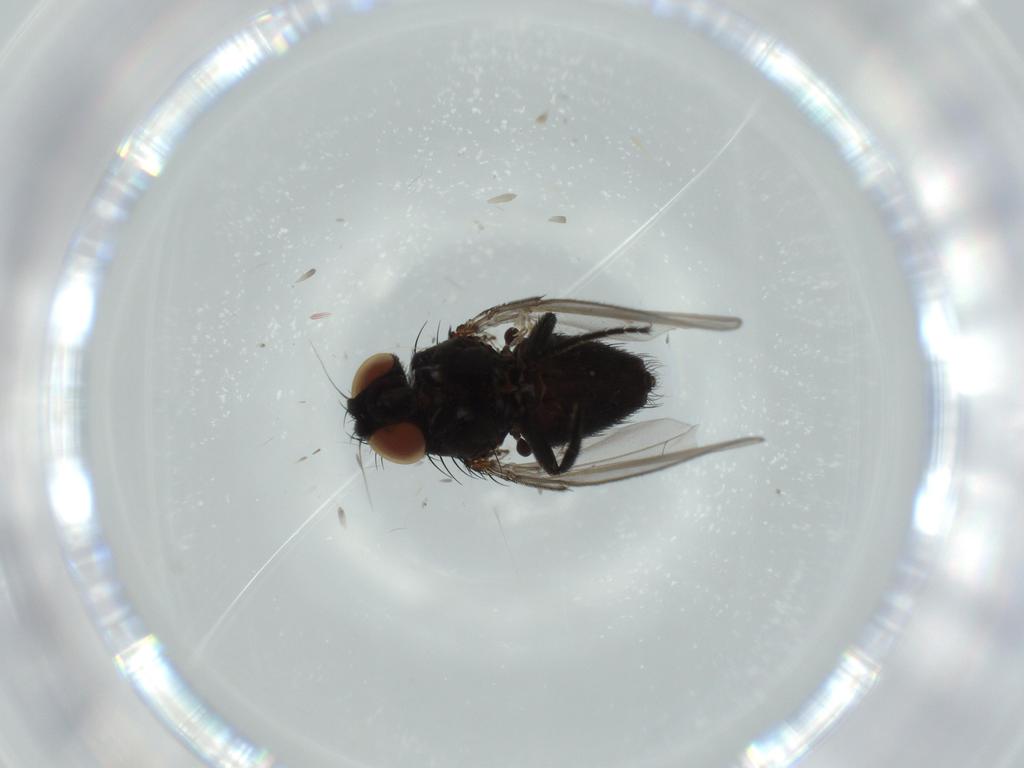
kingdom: Animalia
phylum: Arthropoda
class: Insecta
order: Diptera
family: Milichiidae
